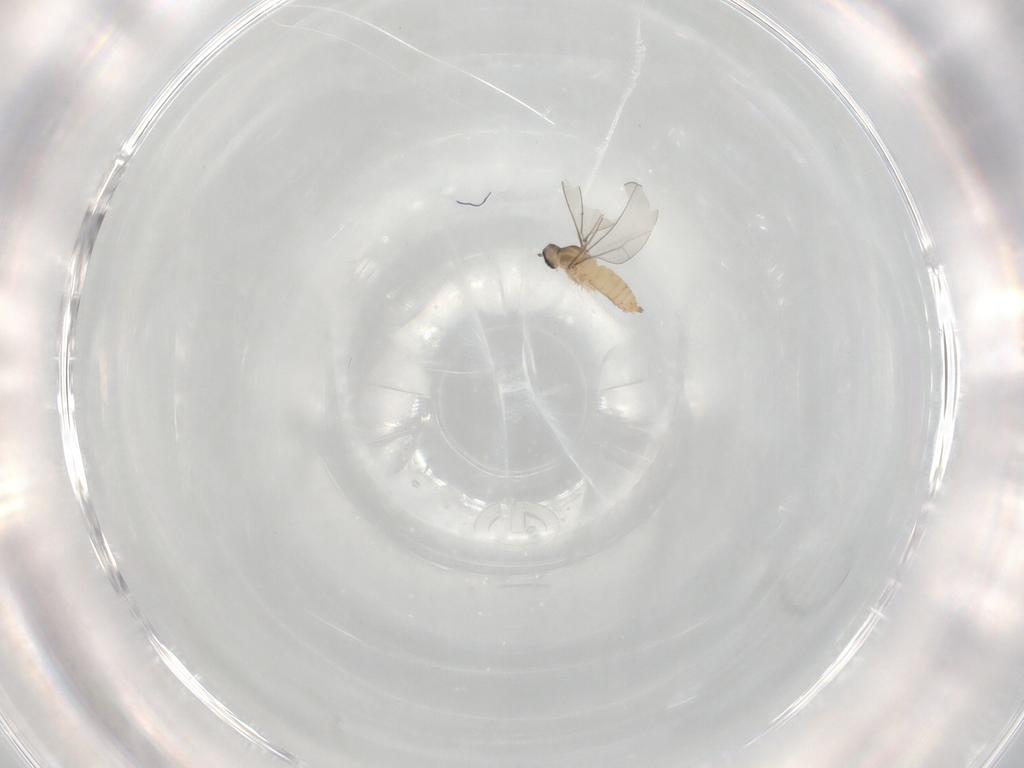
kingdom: Animalia
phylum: Arthropoda
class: Insecta
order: Diptera
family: Cecidomyiidae
